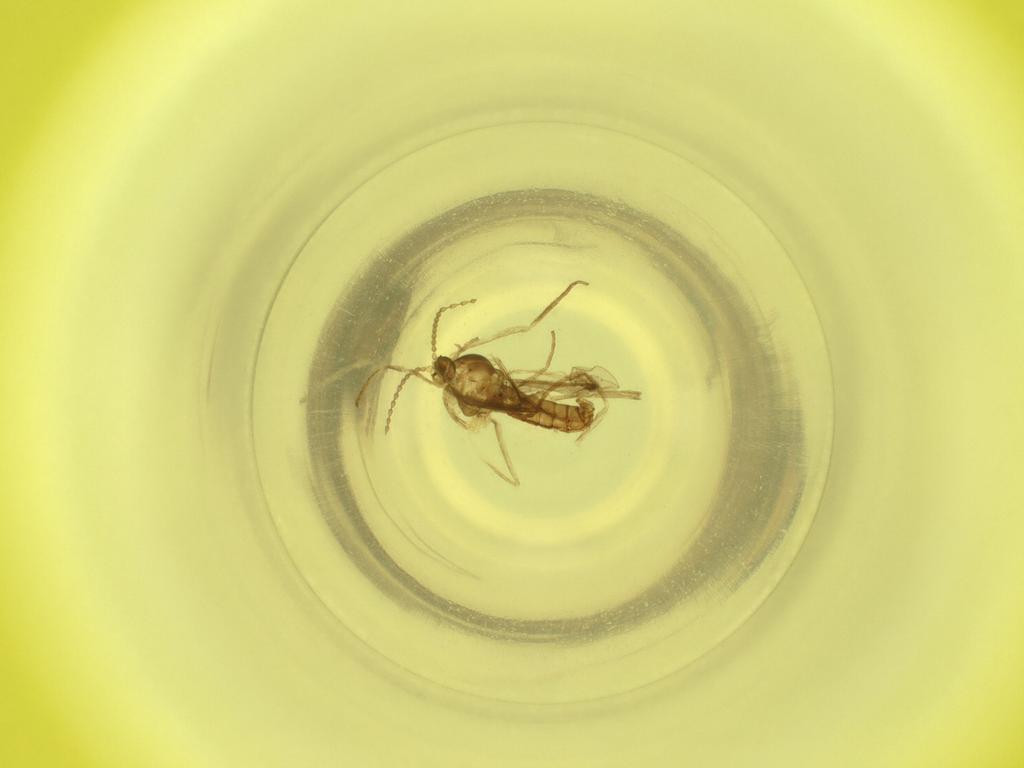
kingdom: Animalia
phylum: Arthropoda
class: Insecta
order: Diptera
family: Cecidomyiidae
